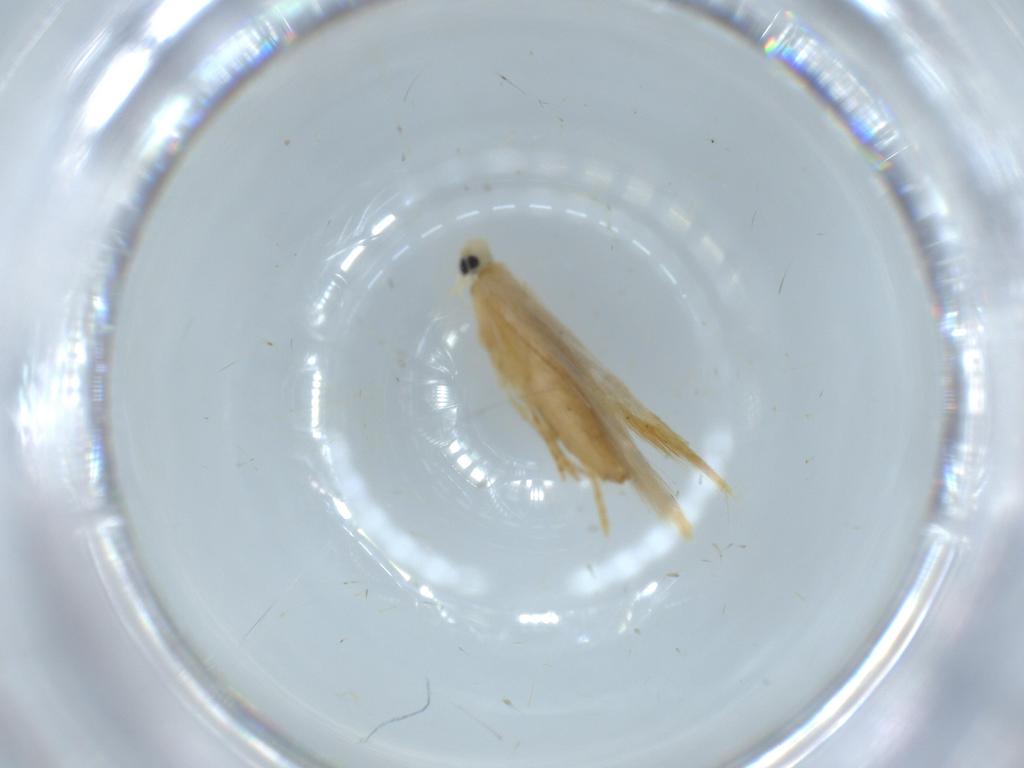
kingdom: Animalia
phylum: Arthropoda
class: Insecta
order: Lepidoptera
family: Tischeriidae
